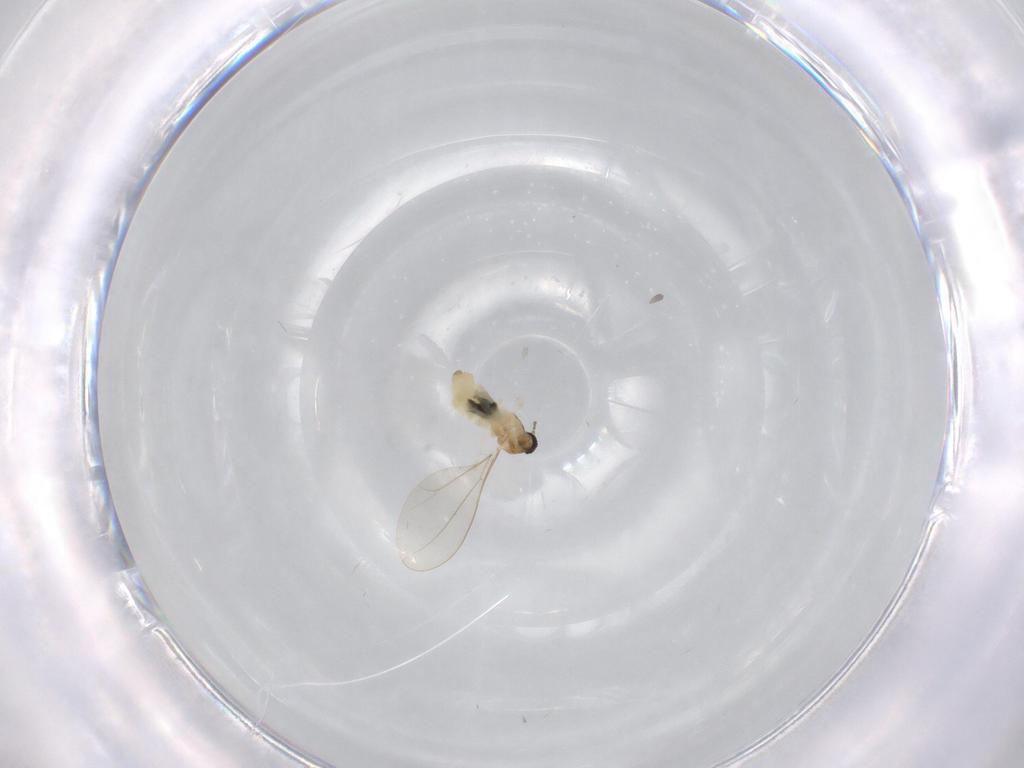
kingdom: Animalia
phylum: Arthropoda
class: Insecta
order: Diptera
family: Cecidomyiidae
